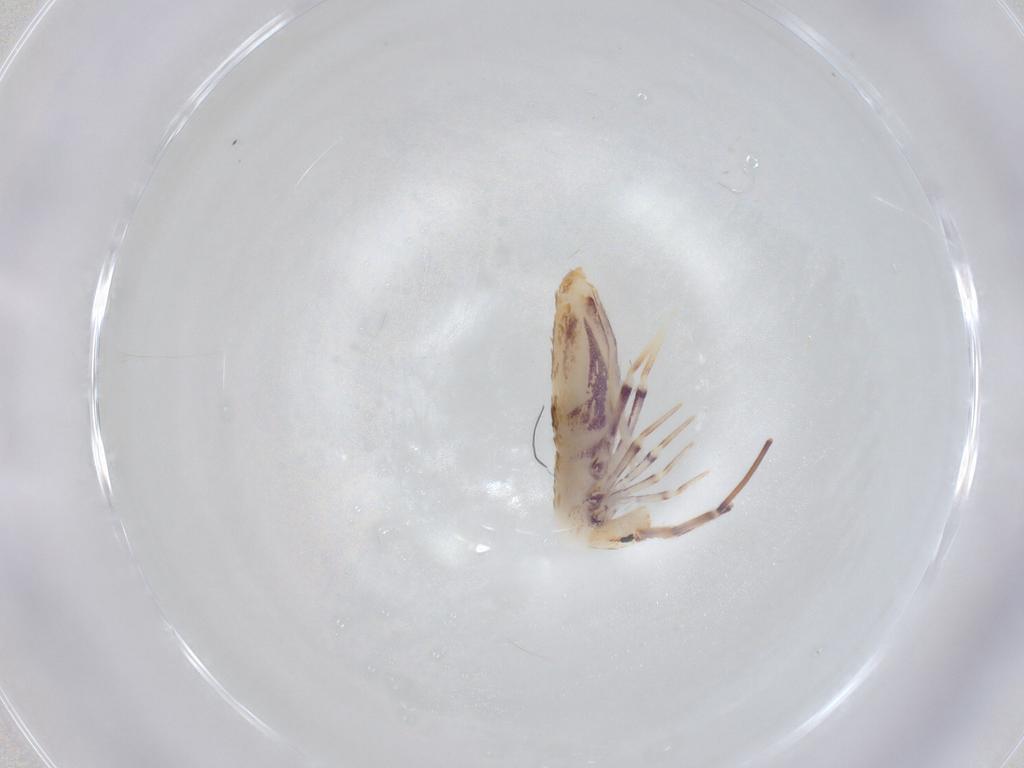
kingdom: Animalia
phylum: Arthropoda
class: Collembola
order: Poduromorpha
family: Hypogastruridae
